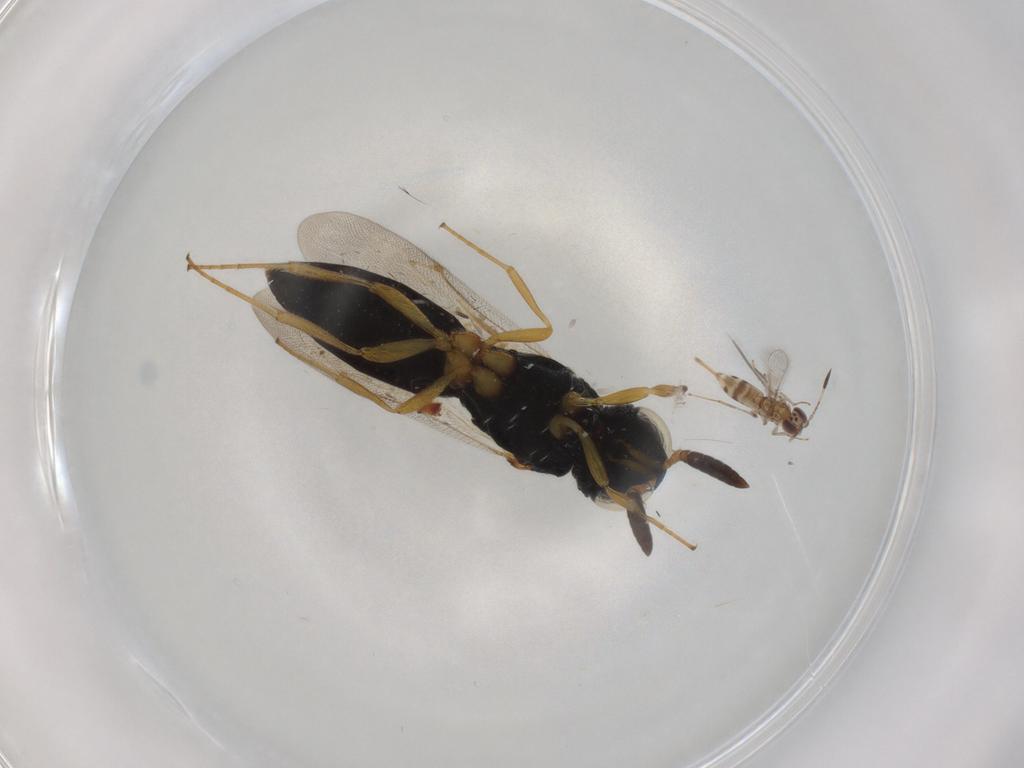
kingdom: Animalia
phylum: Arthropoda
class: Insecta
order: Hymenoptera
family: Mymaridae
